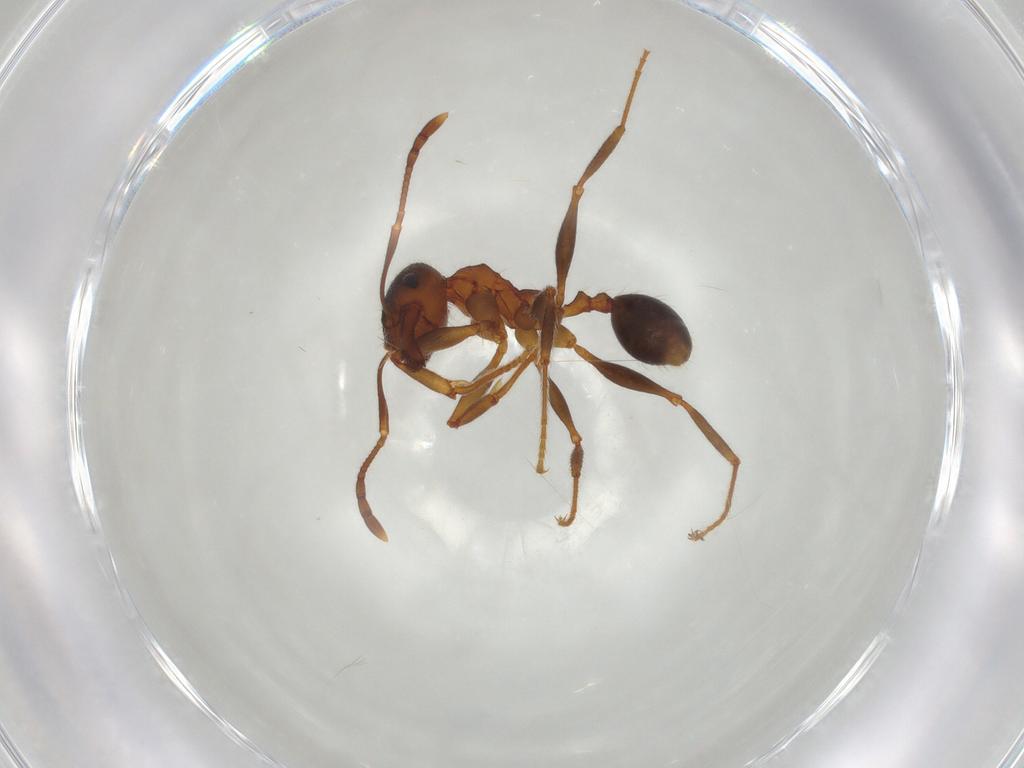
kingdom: Animalia
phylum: Arthropoda
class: Insecta
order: Hymenoptera
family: Formicidae
